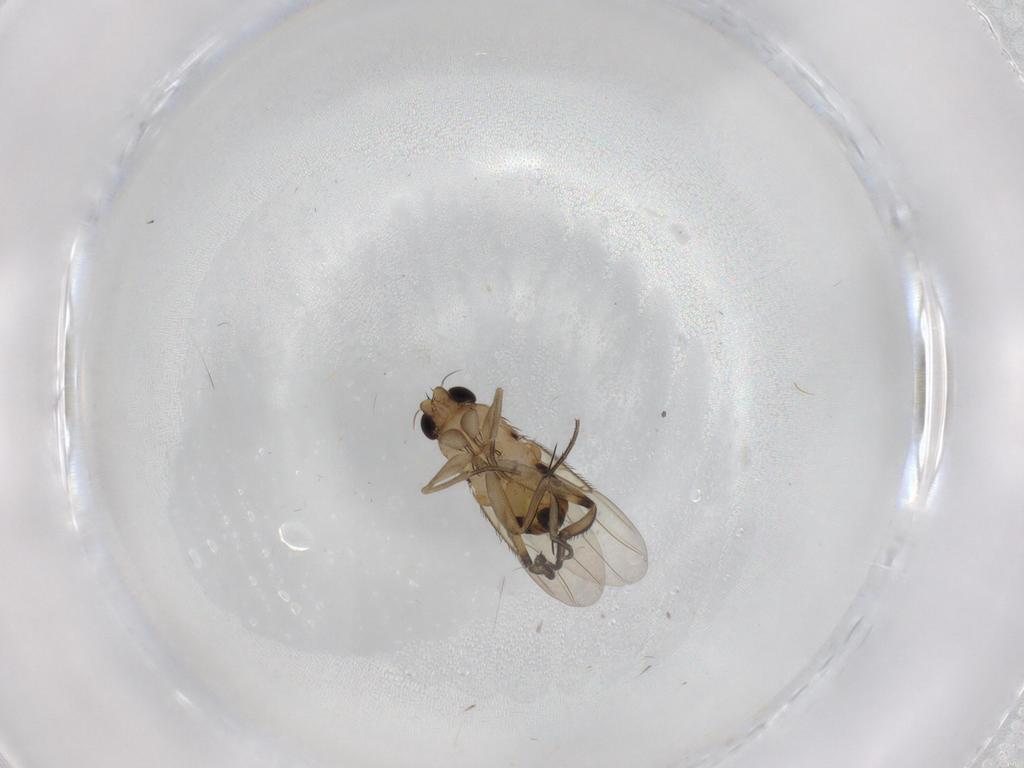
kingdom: Animalia
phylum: Arthropoda
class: Insecta
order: Diptera
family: Phoridae
